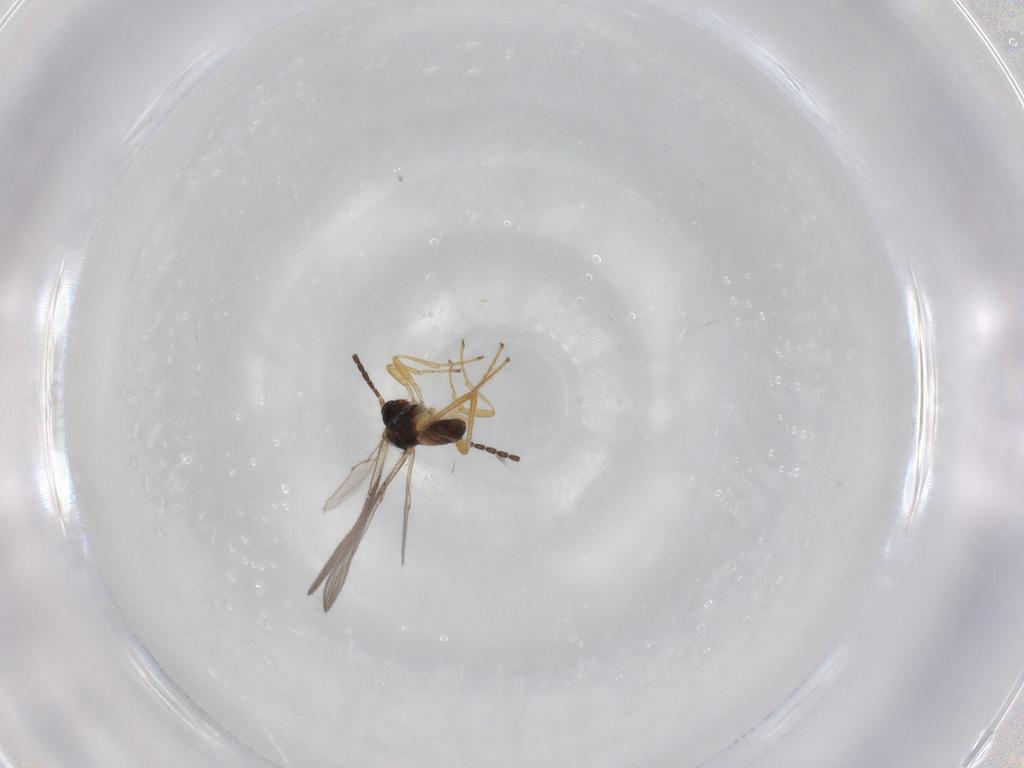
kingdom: Animalia
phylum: Arthropoda
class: Insecta
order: Hymenoptera
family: Braconidae
